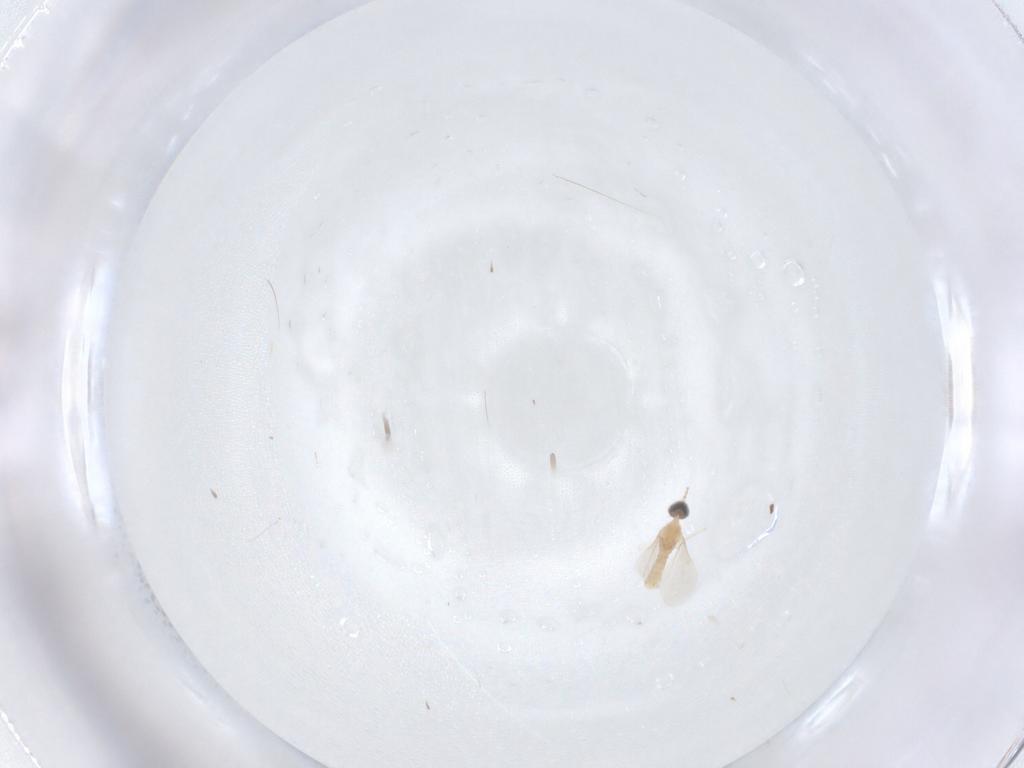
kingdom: Animalia
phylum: Arthropoda
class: Insecta
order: Diptera
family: Cecidomyiidae
